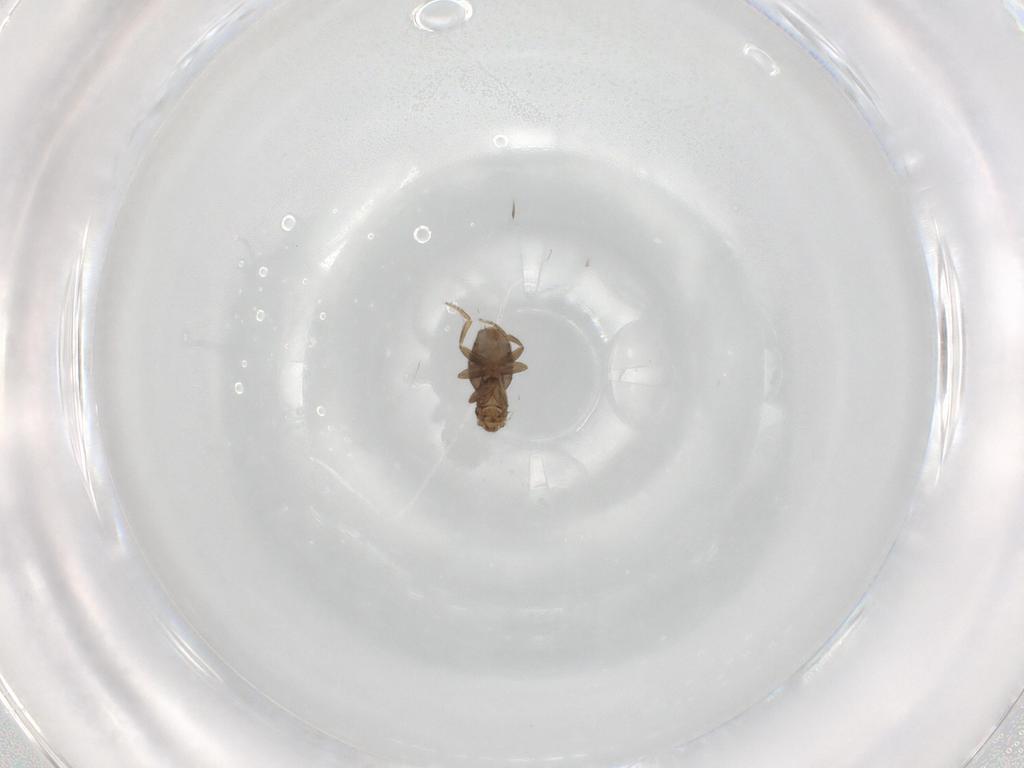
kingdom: Animalia
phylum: Arthropoda
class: Insecta
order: Diptera
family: Phoridae
